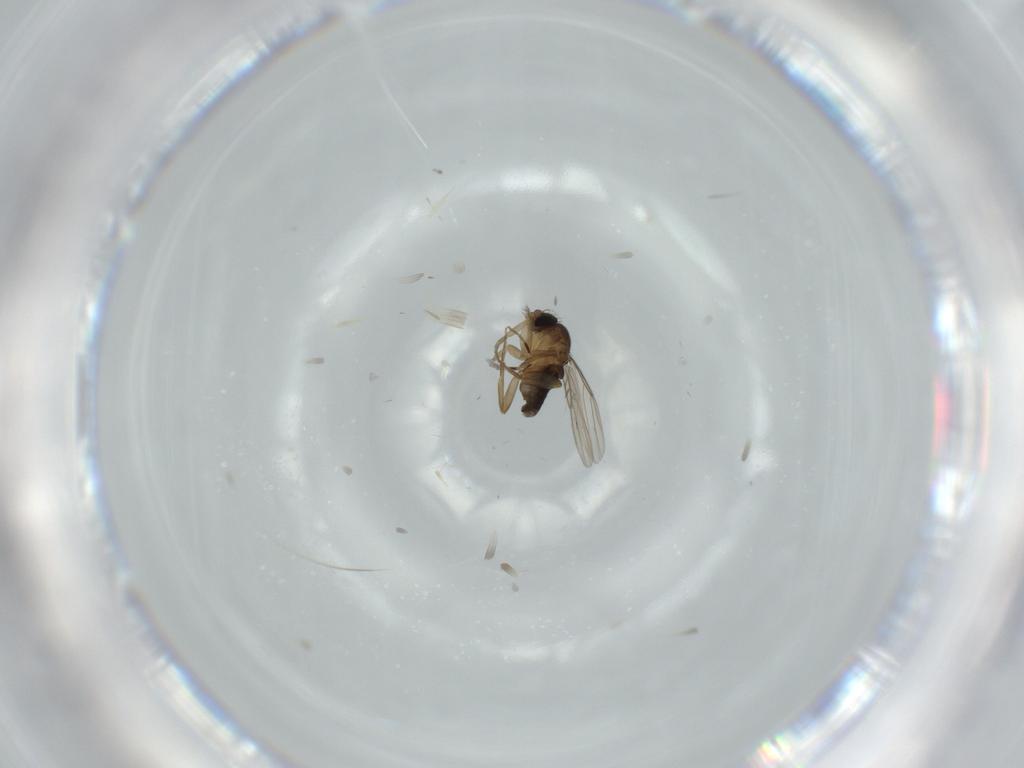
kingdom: Animalia
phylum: Arthropoda
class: Insecta
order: Diptera
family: Phoridae
